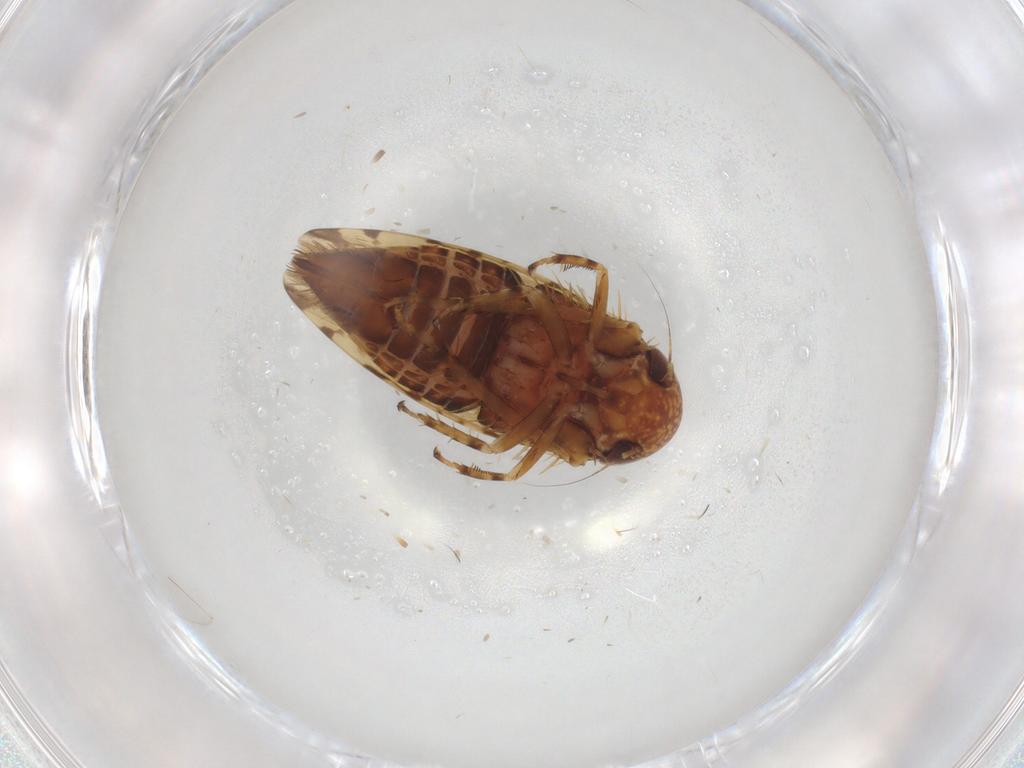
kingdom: Animalia
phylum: Arthropoda
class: Insecta
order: Hemiptera
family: Cicadellidae
